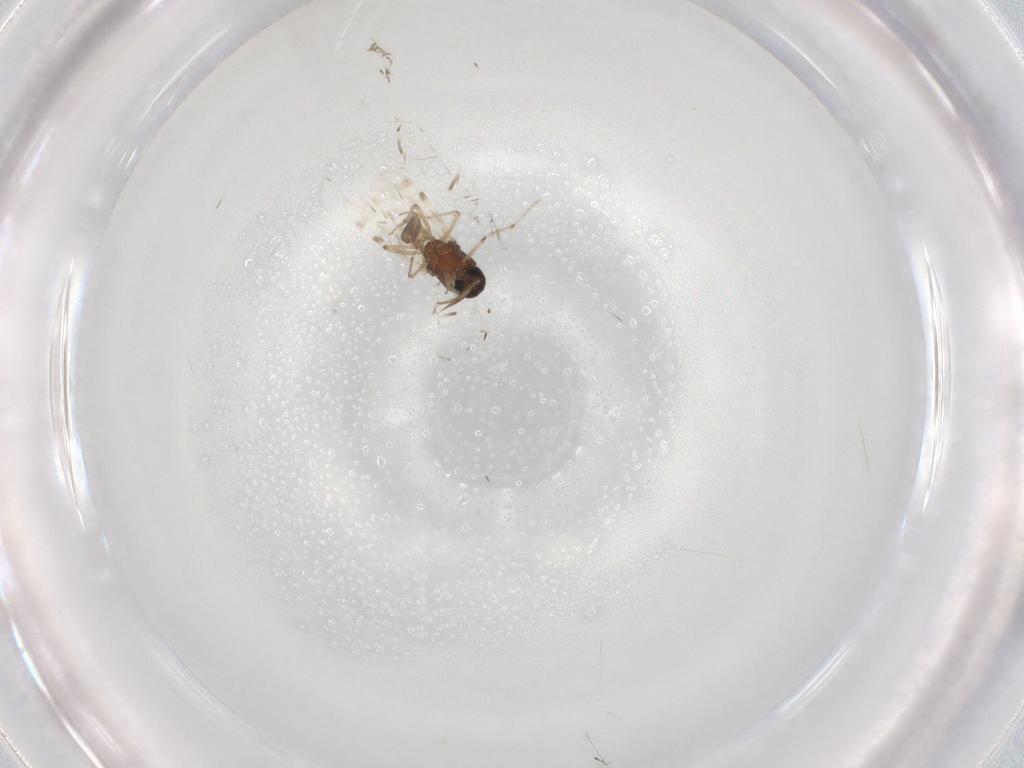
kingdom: Animalia
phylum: Arthropoda
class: Insecta
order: Diptera
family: Ceratopogonidae
